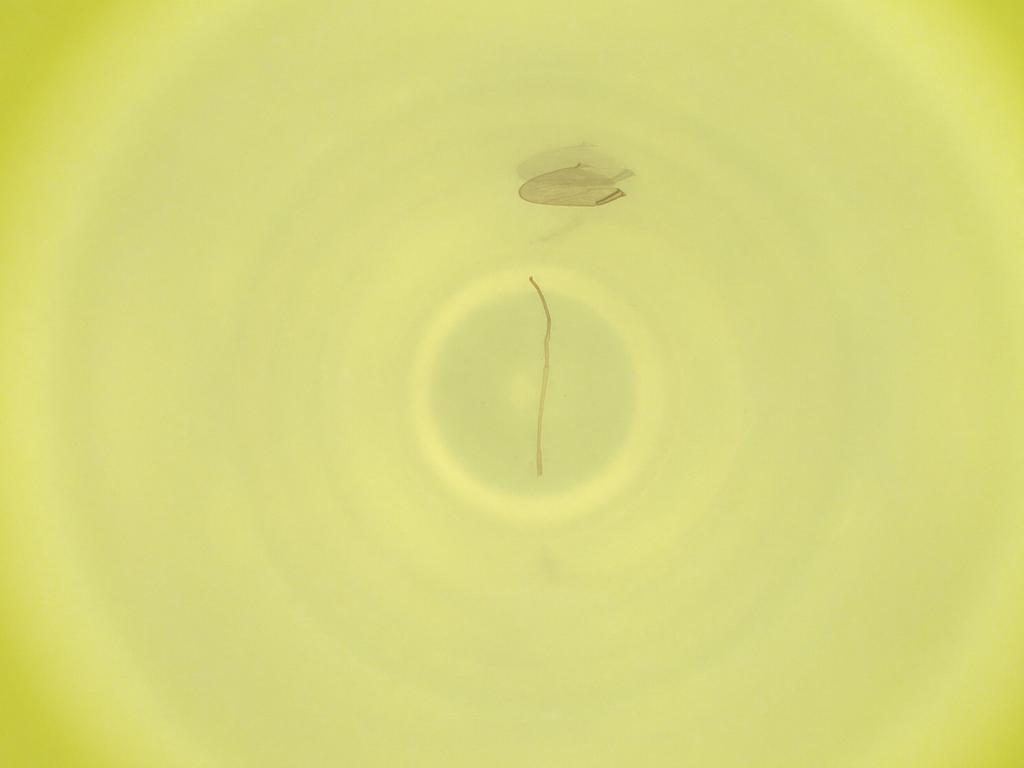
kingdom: Animalia
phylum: Arthropoda
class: Insecta
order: Diptera
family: Cecidomyiidae
